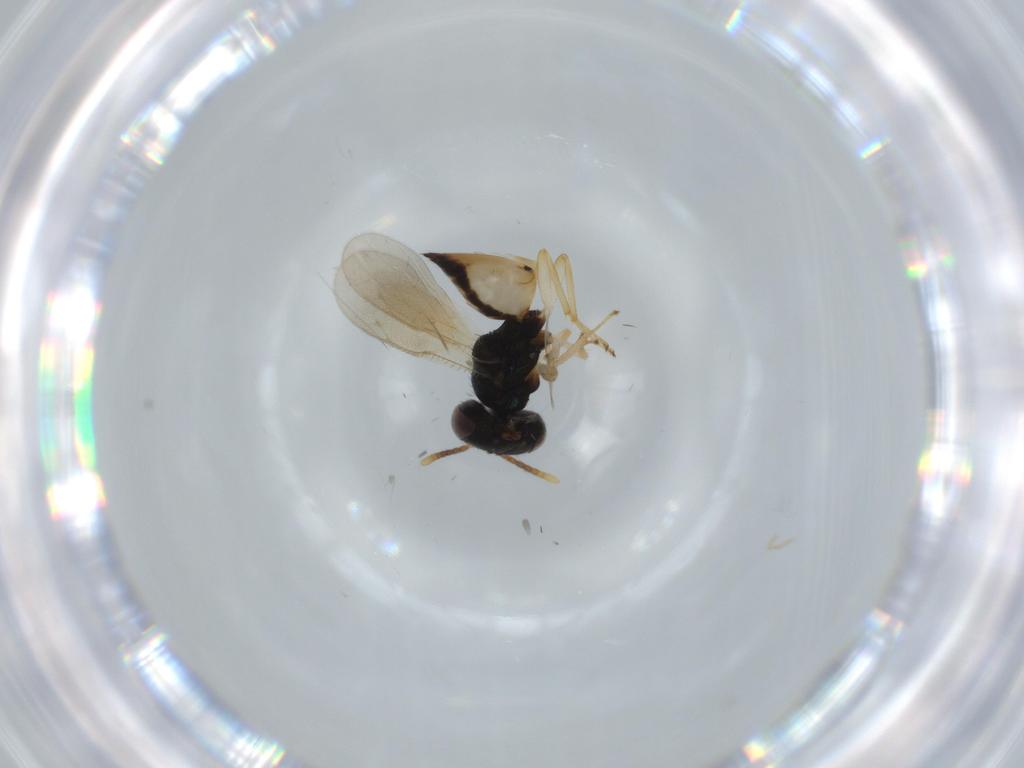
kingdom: Animalia
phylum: Arthropoda
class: Insecta
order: Hymenoptera
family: Pteromalidae
